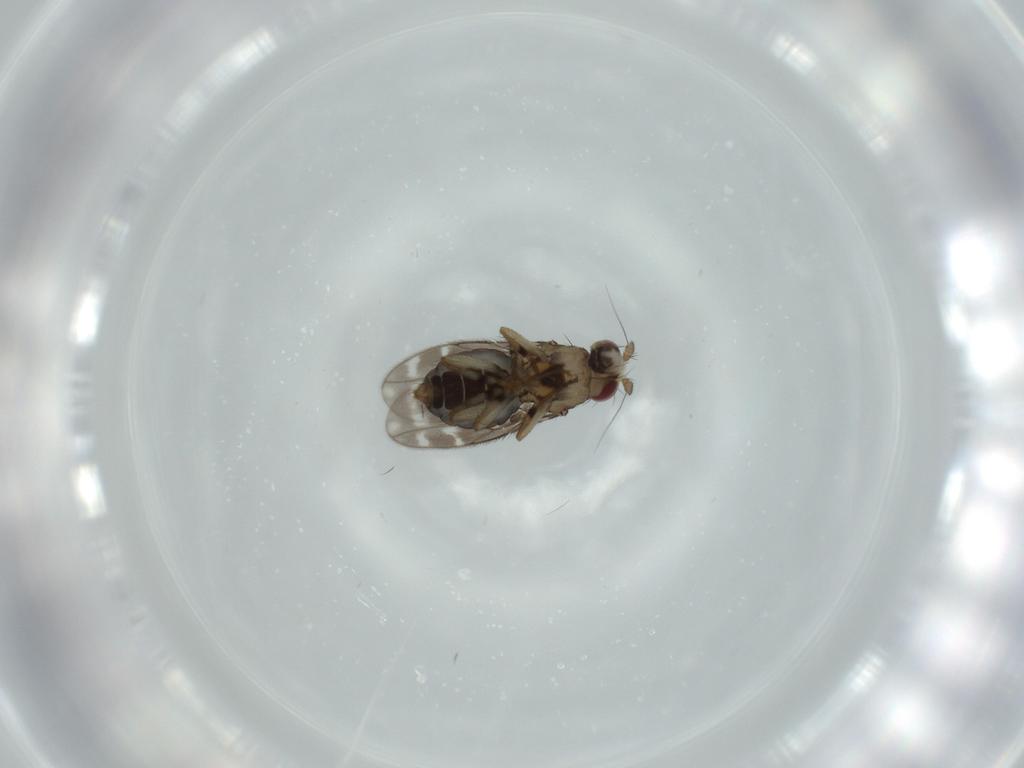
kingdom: Animalia
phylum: Arthropoda
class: Insecta
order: Diptera
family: Sphaeroceridae
